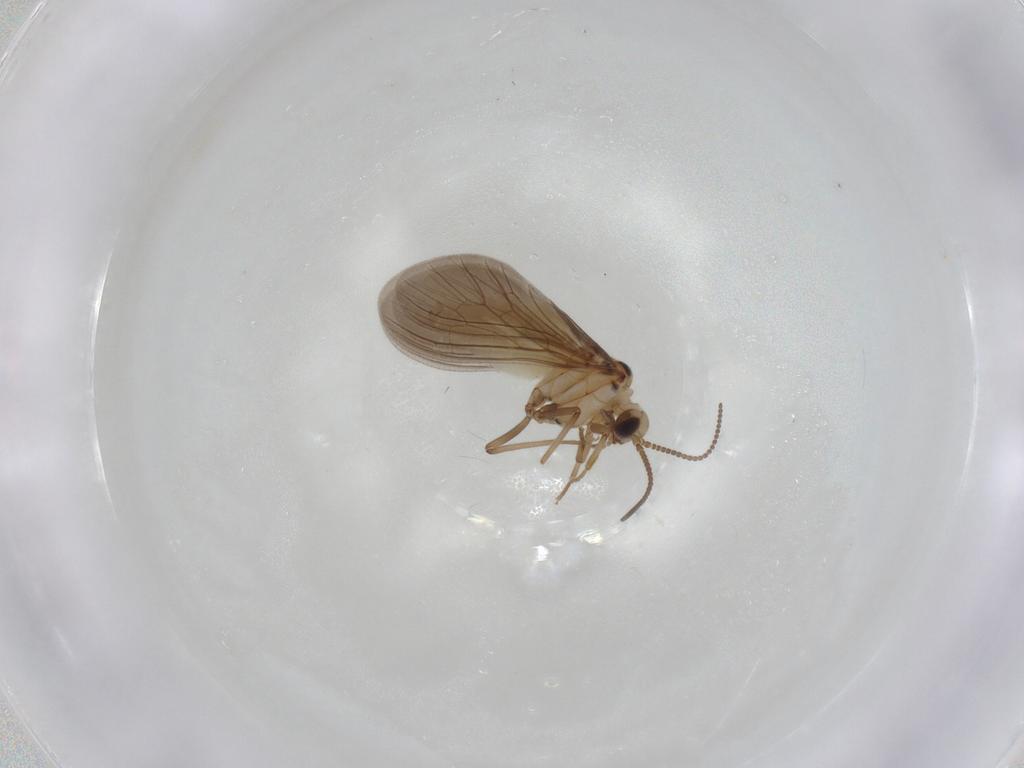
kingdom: Animalia
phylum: Arthropoda
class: Insecta
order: Neuroptera
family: Coniopterygidae
